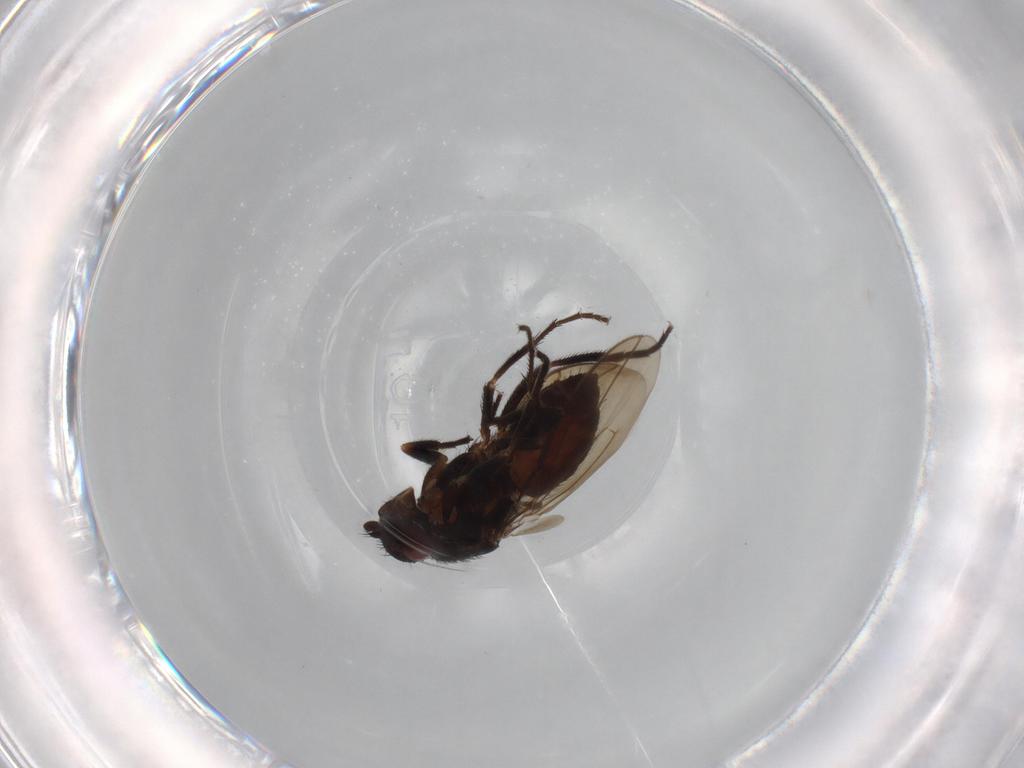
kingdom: Animalia
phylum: Arthropoda
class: Insecta
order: Diptera
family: Sphaeroceridae
